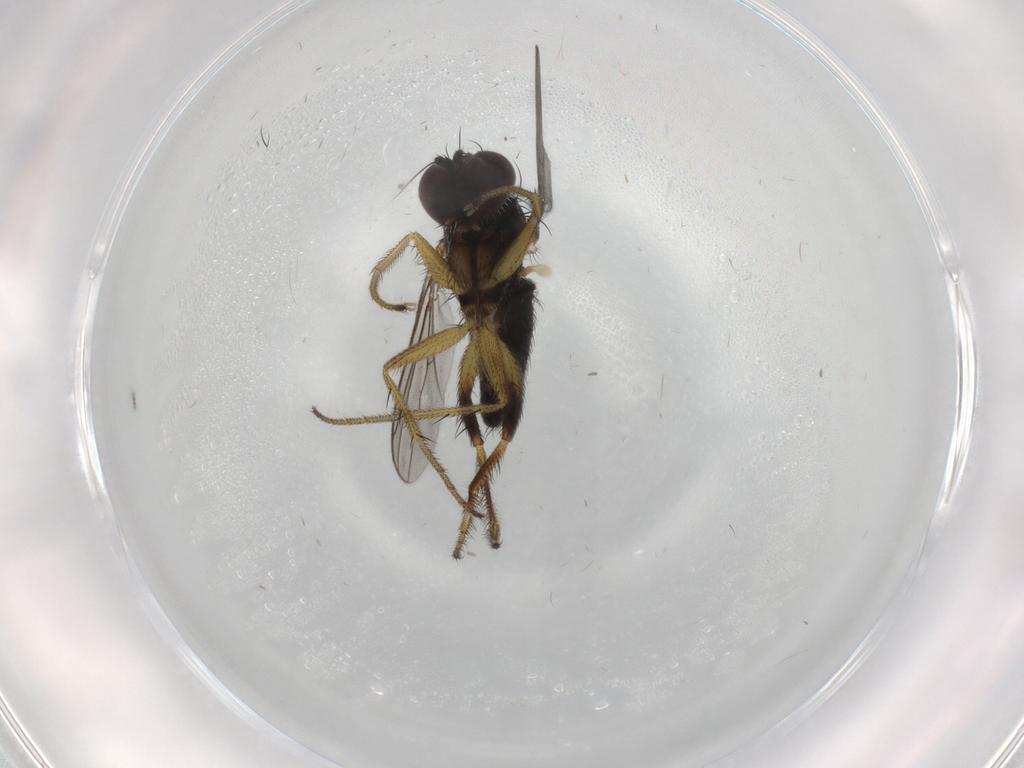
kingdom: Animalia
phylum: Arthropoda
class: Insecta
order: Diptera
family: Dolichopodidae
